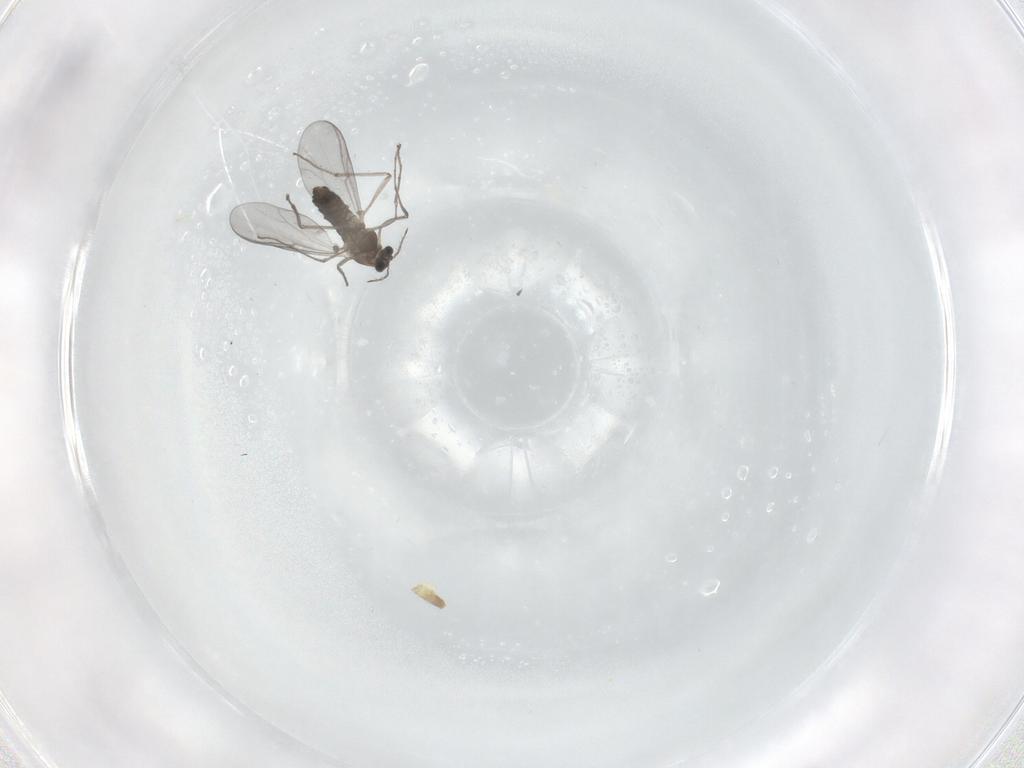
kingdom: Animalia
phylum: Arthropoda
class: Insecta
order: Diptera
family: Chironomidae
